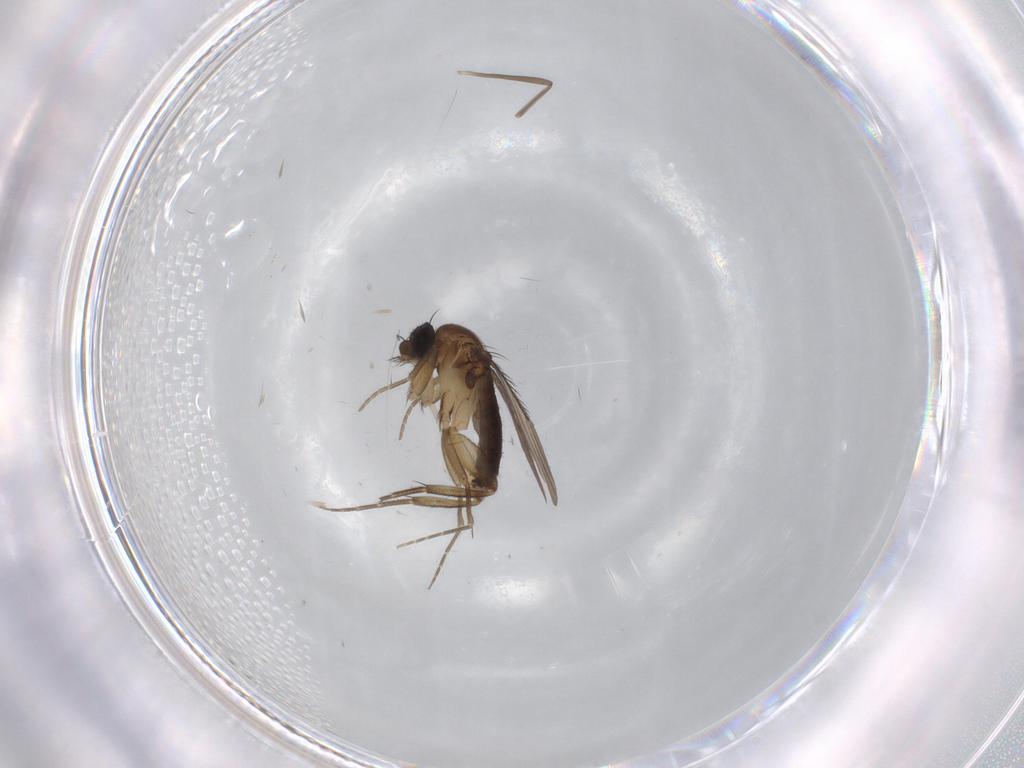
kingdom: Animalia
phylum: Arthropoda
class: Insecta
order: Diptera
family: Phoridae
